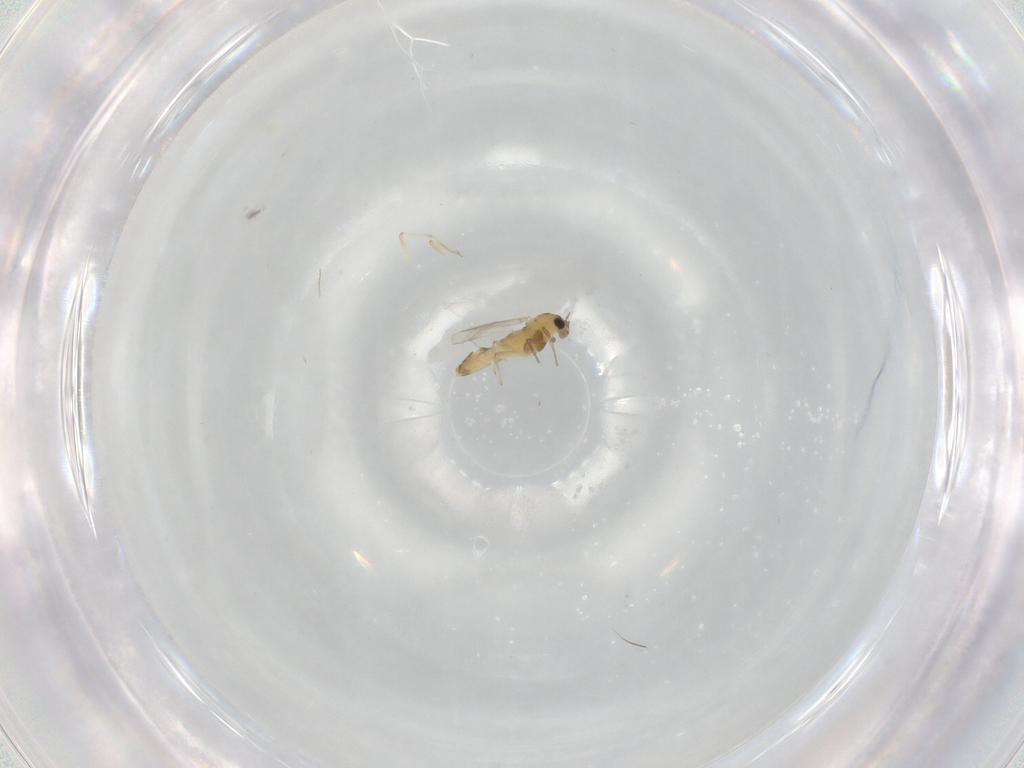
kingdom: Animalia
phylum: Arthropoda
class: Insecta
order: Diptera
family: Chironomidae
